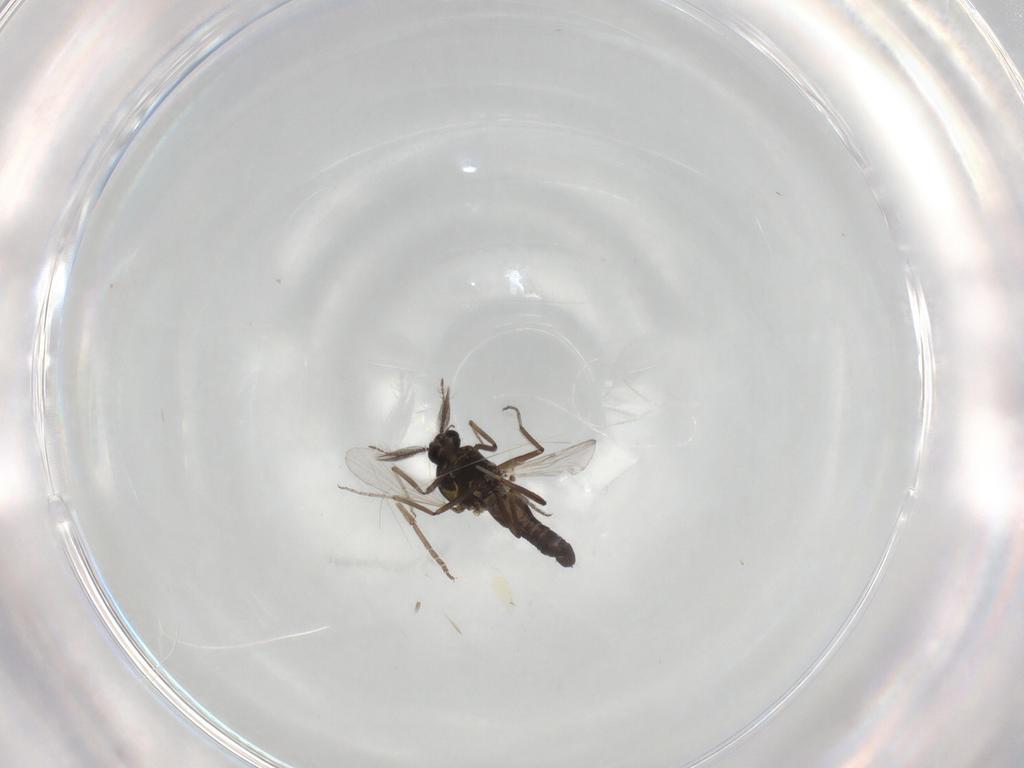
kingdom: Animalia
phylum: Arthropoda
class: Insecta
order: Diptera
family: Ceratopogonidae
